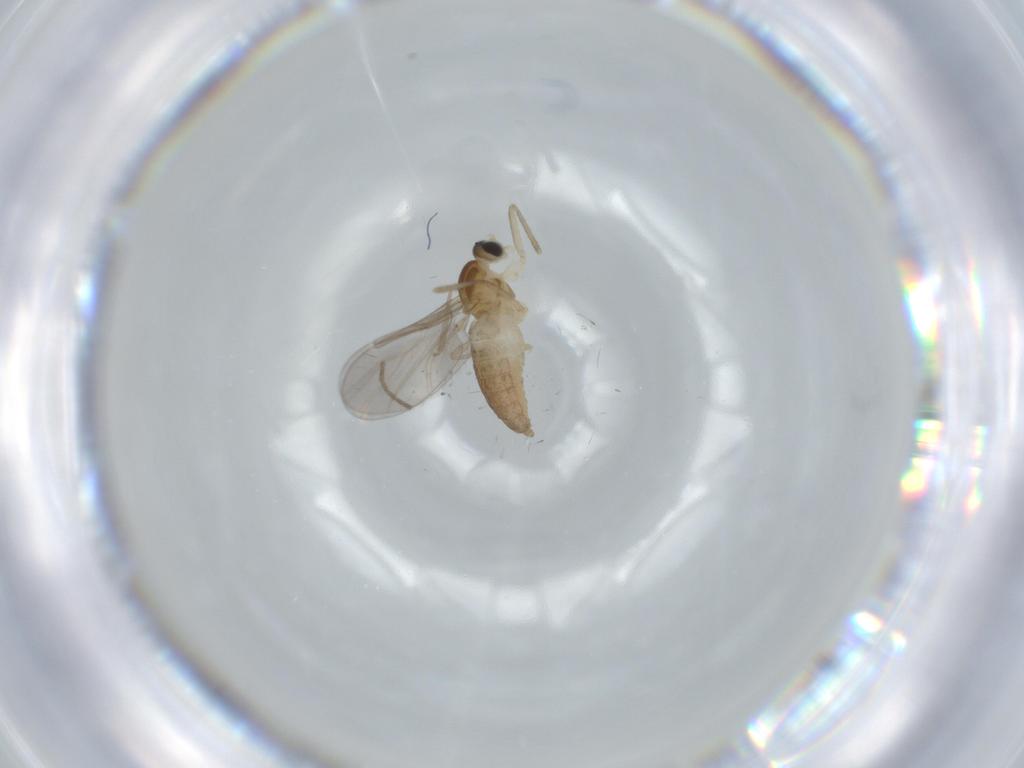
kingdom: Animalia
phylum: Arthropoda
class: Insecta
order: Diptera
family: Cecidomyiidae
